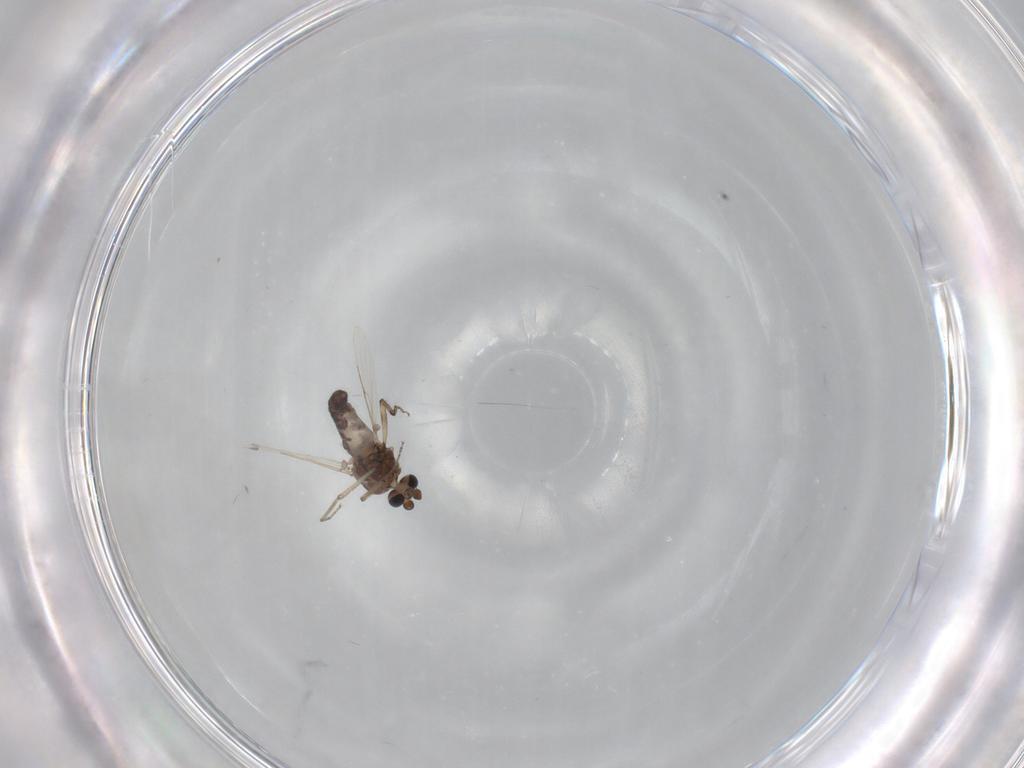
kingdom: Animalia
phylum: Arthropoda
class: Insecta
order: Diptera
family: Ceratopogonidae
